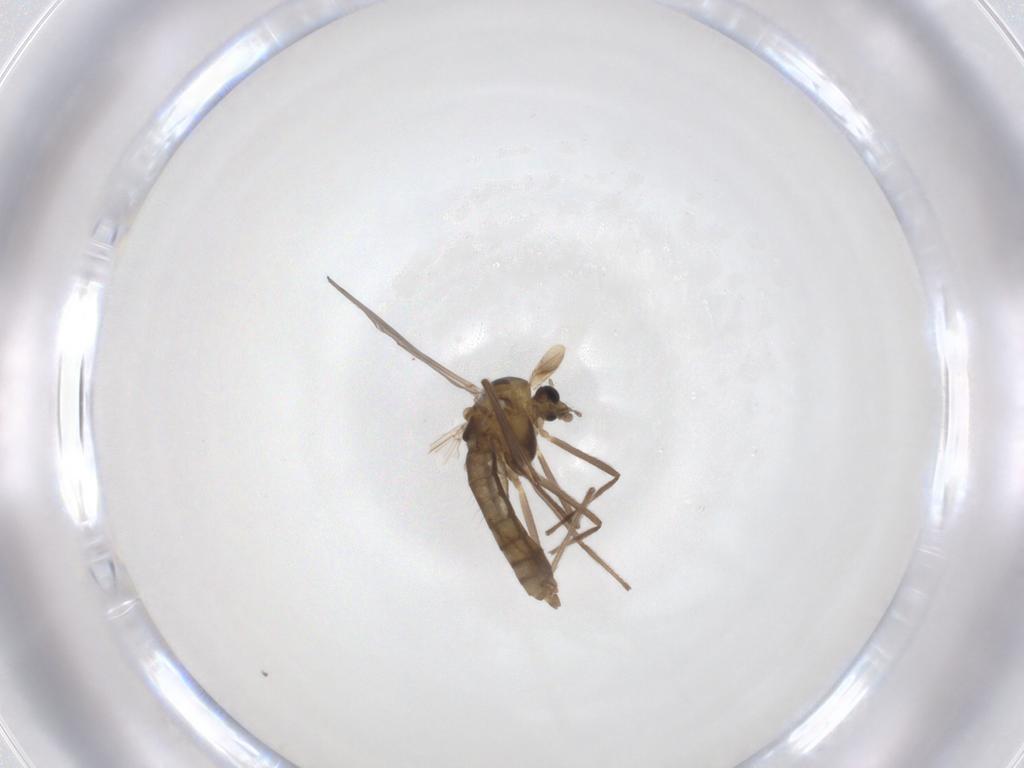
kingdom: Animalia
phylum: Arthropoda
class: Insecta
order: Diptera
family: Chironomidae
